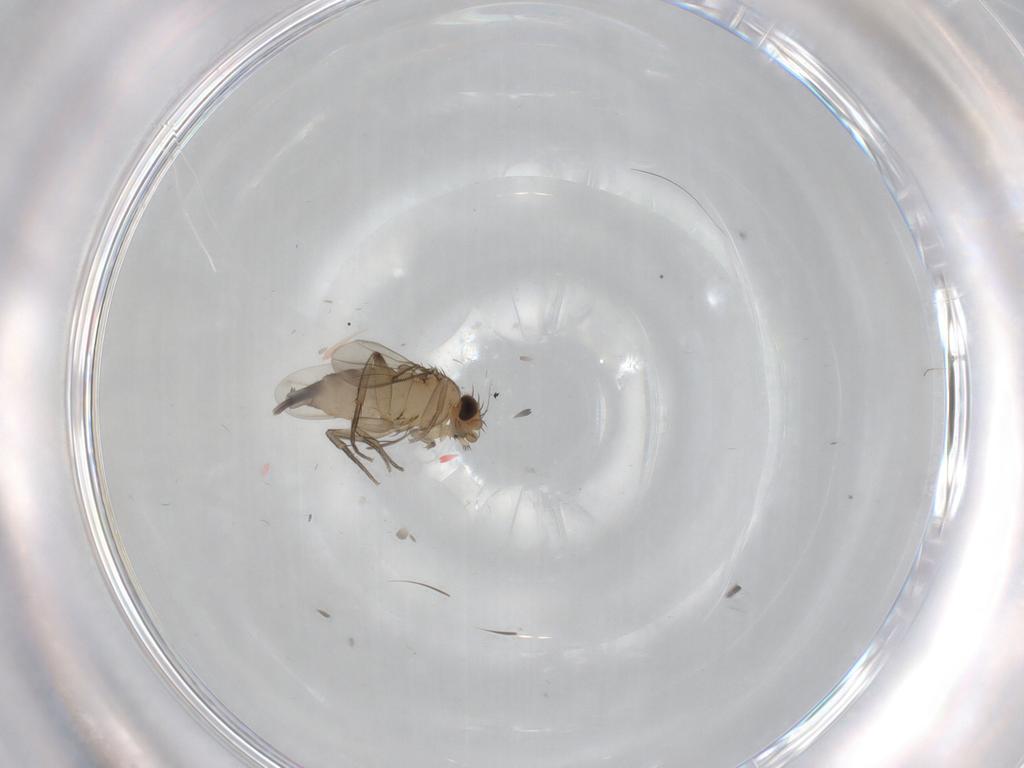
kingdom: Animalia
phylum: Arthropoda
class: Insecta
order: Diptera
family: Phoridae
